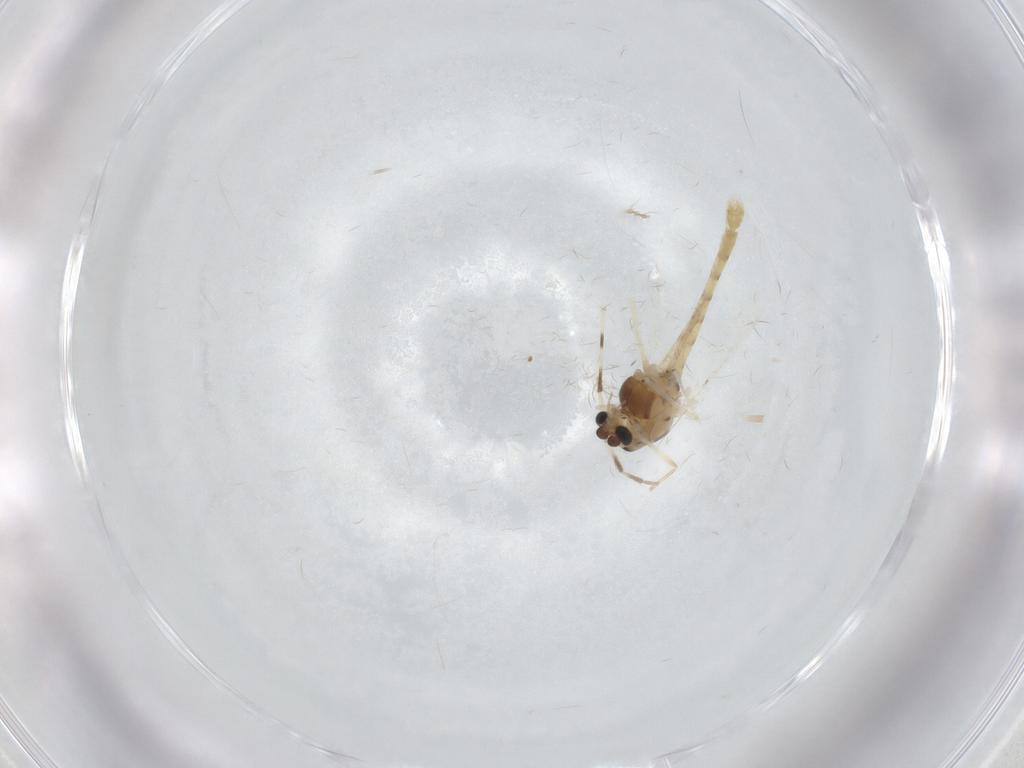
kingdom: Animalia
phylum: Arthropoda
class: Insecta
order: Diptera
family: Chironomidae
